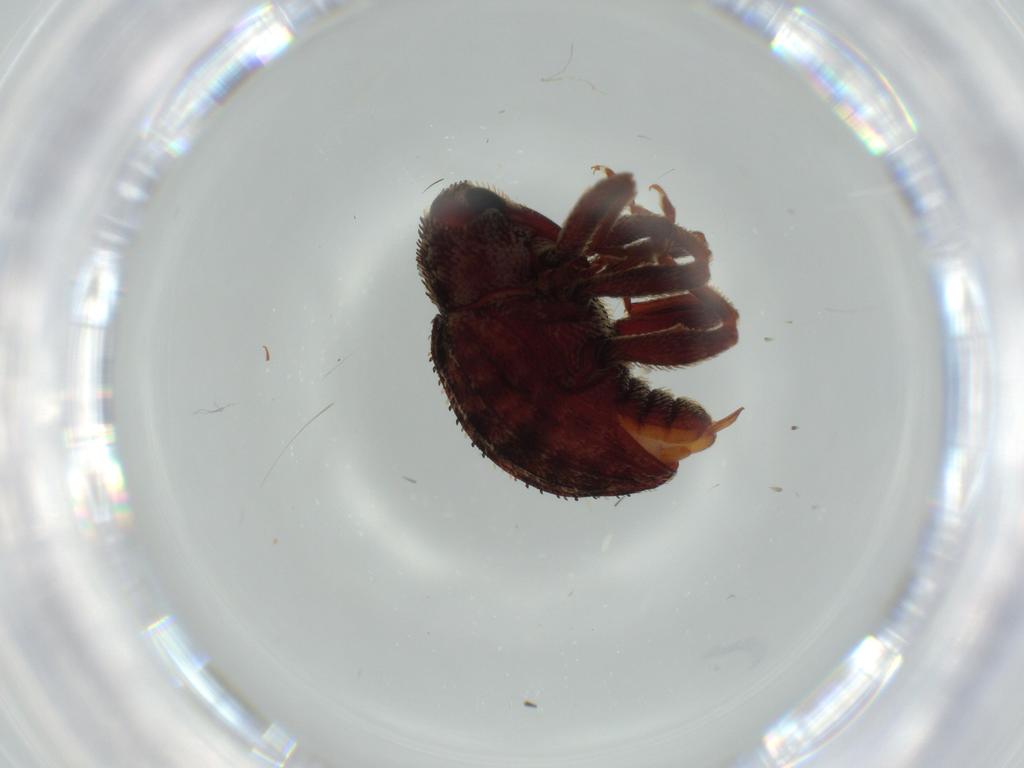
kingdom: Animalia
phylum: Arthropoda
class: Insecta
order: Coleoptera
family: Curculionidae
